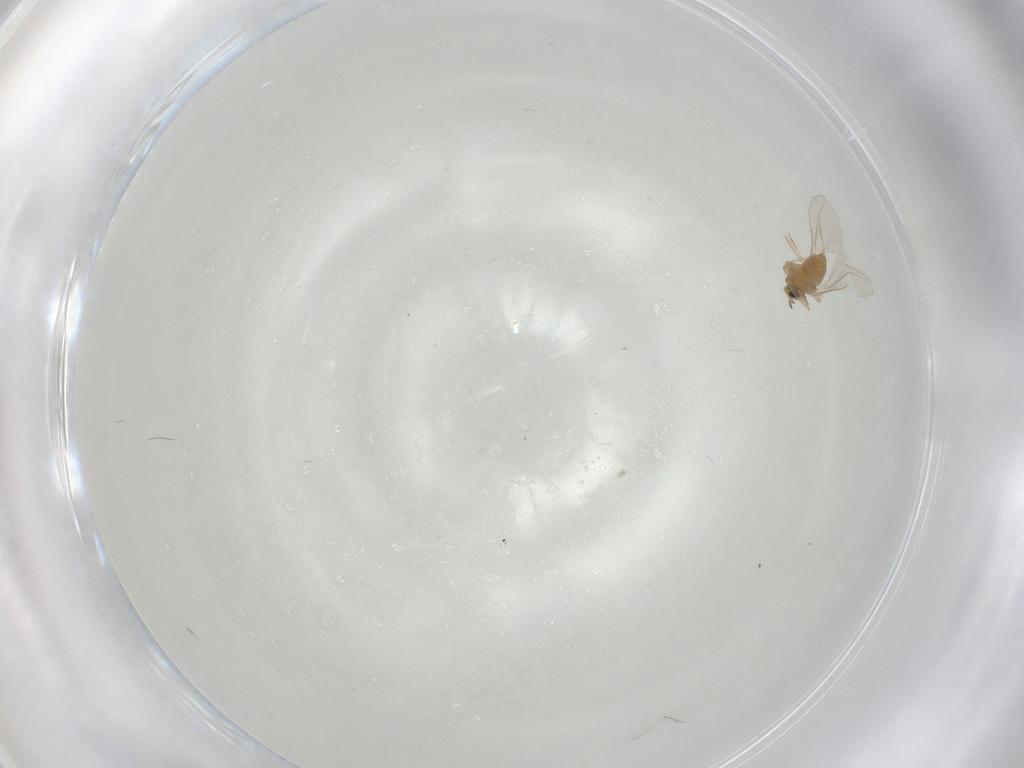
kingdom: Animalia
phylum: Arthropoda
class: Insecta
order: Diptera
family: Cecidomyiidae
